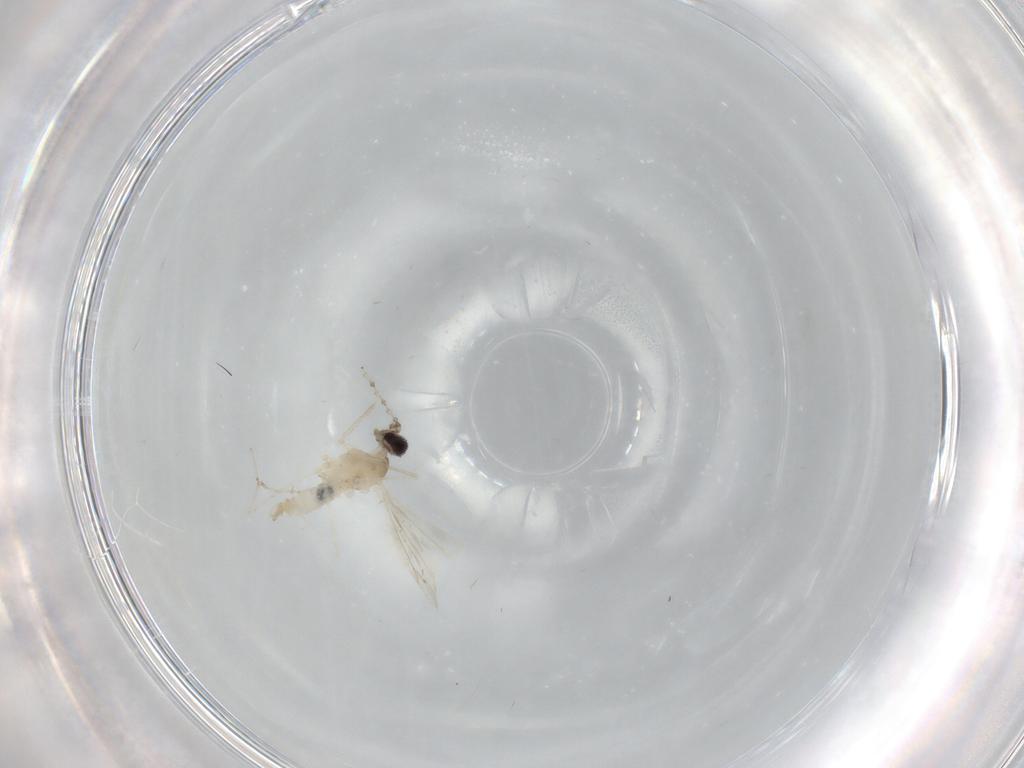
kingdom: Animalia
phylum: Arthropoda
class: Insecta
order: Diptera
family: Cecidomyiidae
